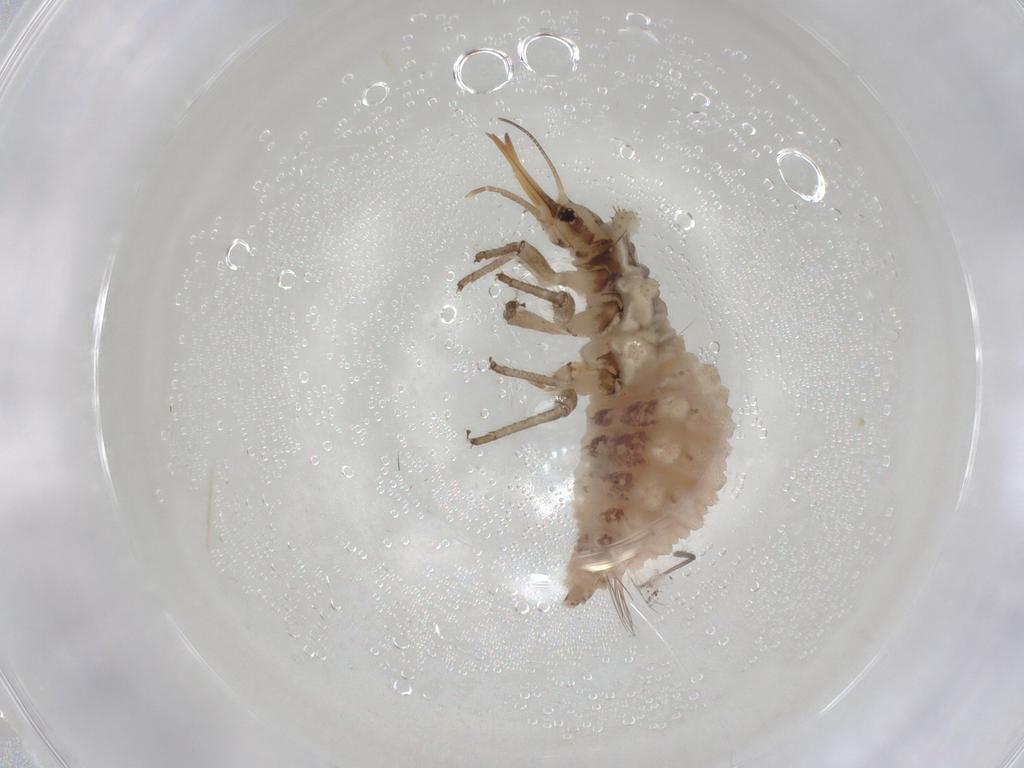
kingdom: Animalia
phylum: Arthropoda
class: Insecta
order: Neuroptera
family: Chrysopidae
